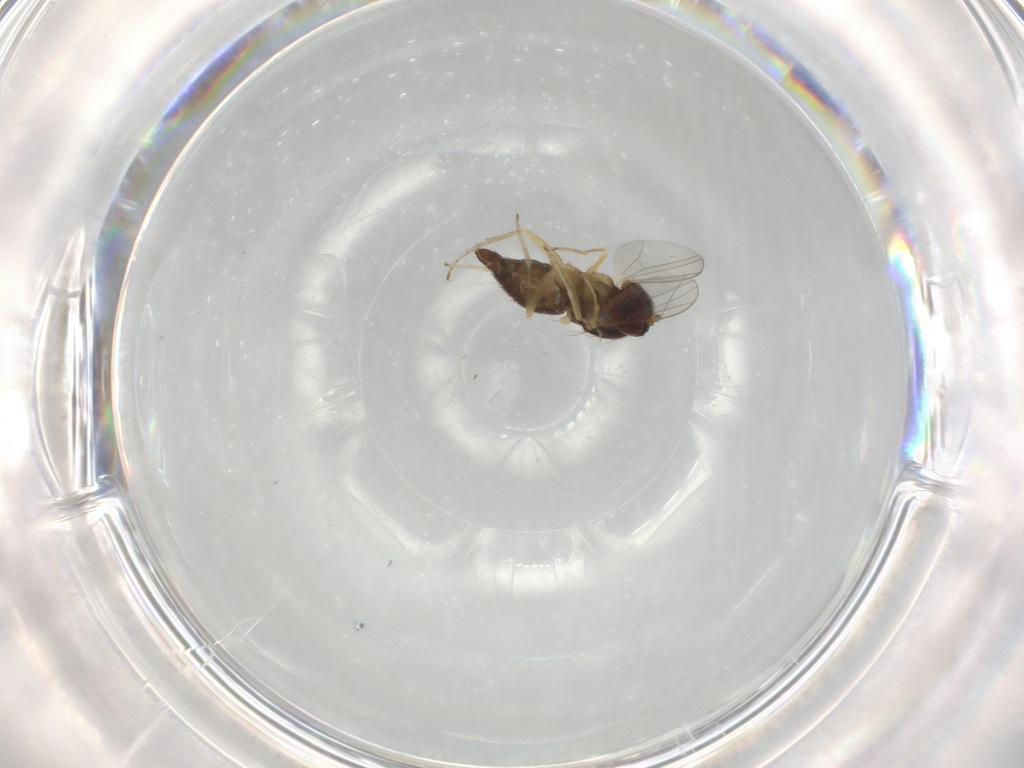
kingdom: Animalia
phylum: Arthropoda
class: Insecta
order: Diptera
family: Dolichopodidae
